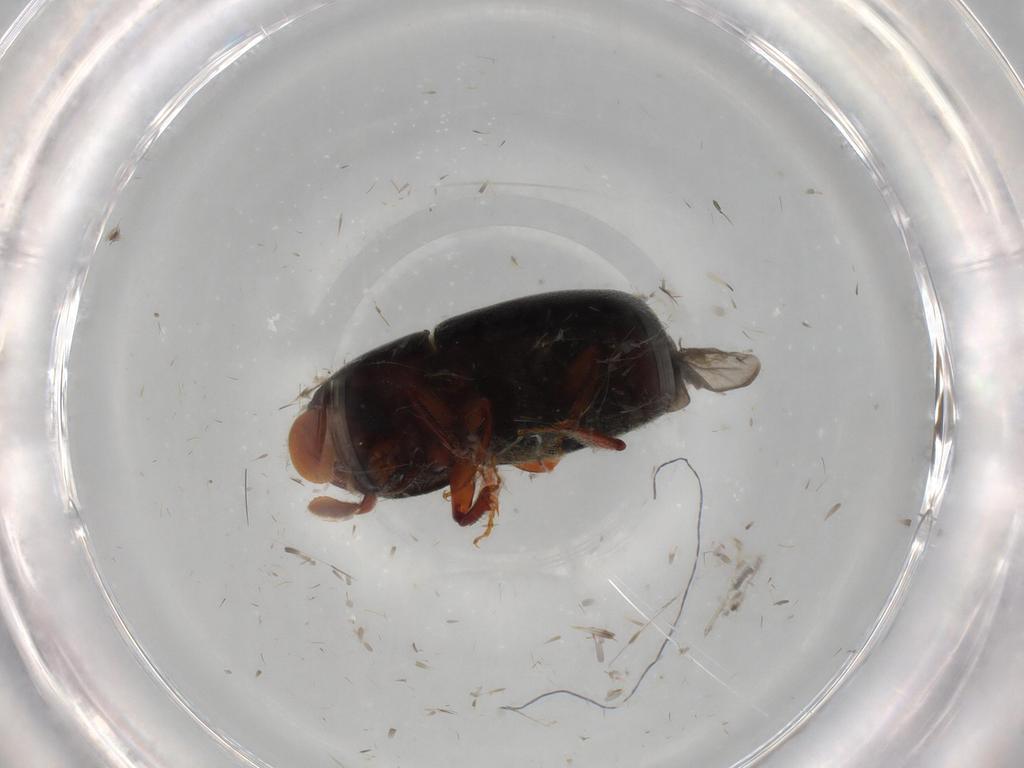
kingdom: Animalia
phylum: Arthropoda
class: Insecta
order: Coleoptera
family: Curculionidae
